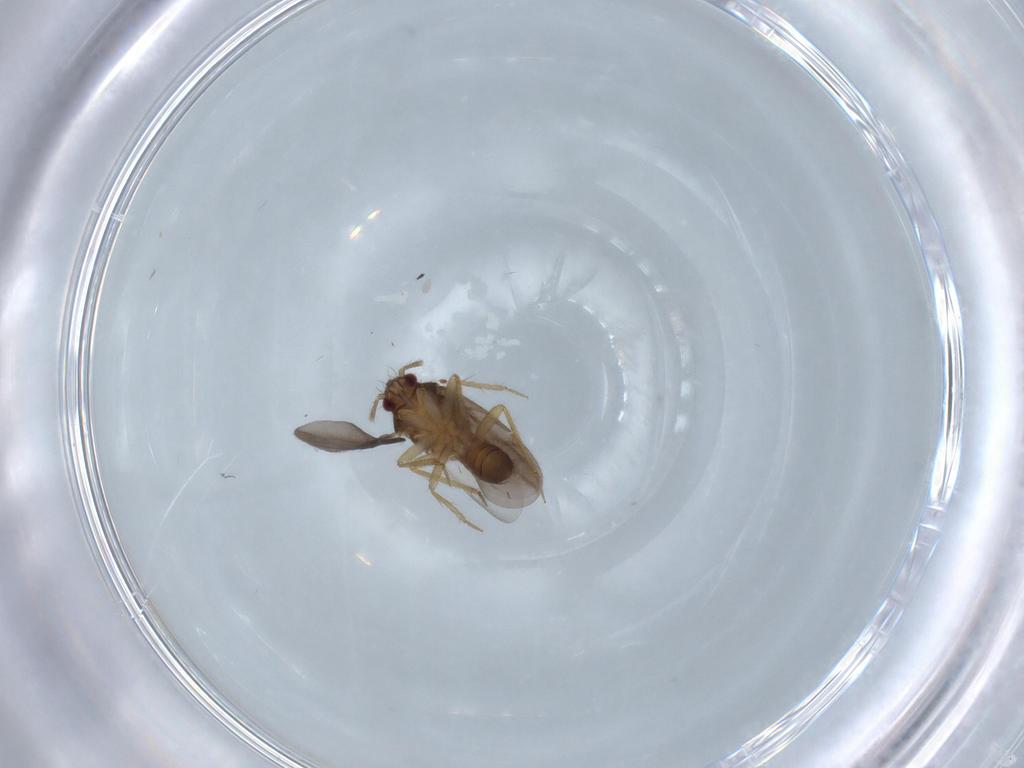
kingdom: Animalia
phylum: Arthropoda
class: Insecta
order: Hemiptera
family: Ceratocombidae
